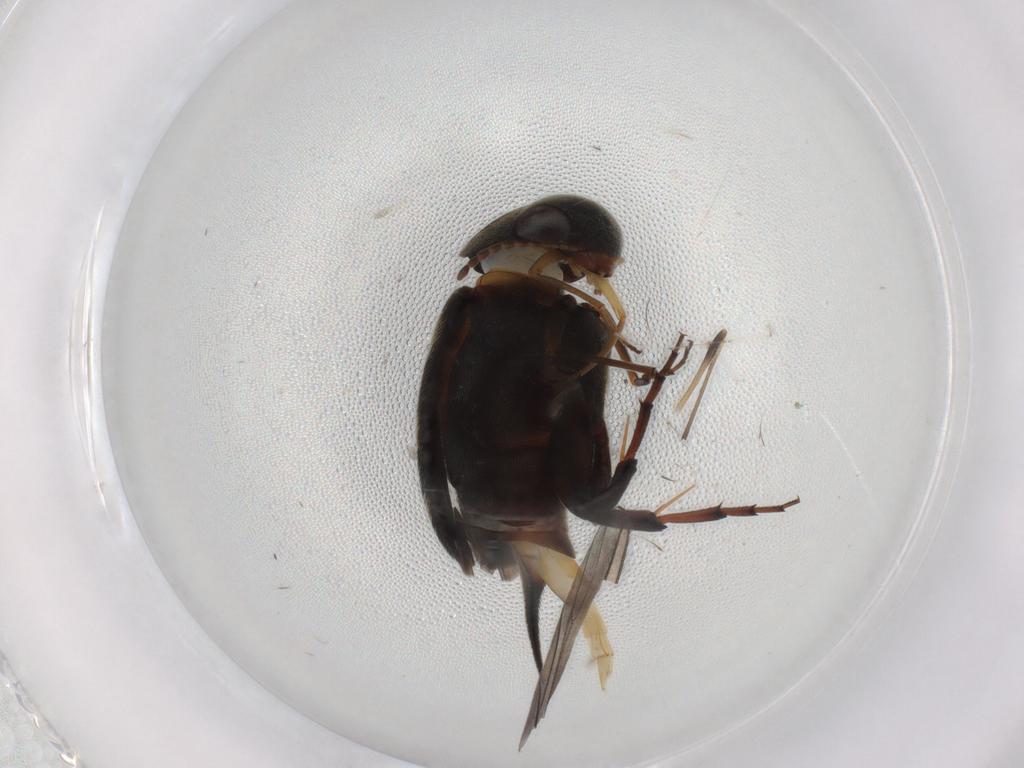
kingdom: Animalia
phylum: Arthropoda
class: Insecta
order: Coleoptera
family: Mordellidae
